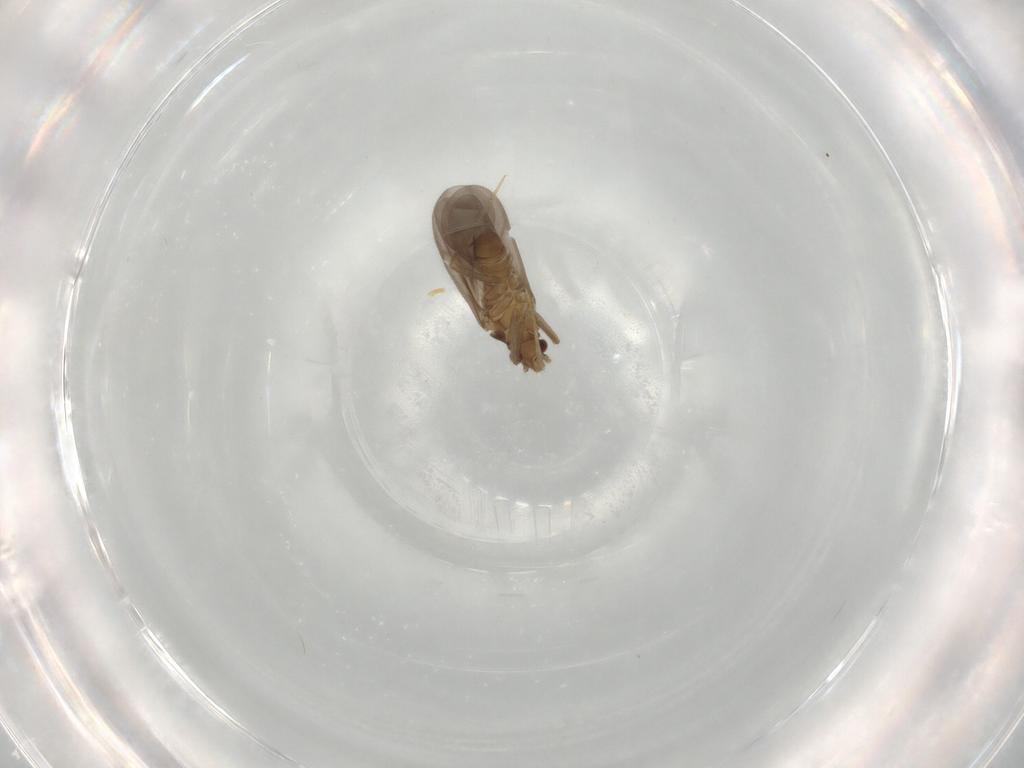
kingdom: Animalia
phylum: Arthropoda
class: Insecta
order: Hemiptera
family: Ceratocombidae
